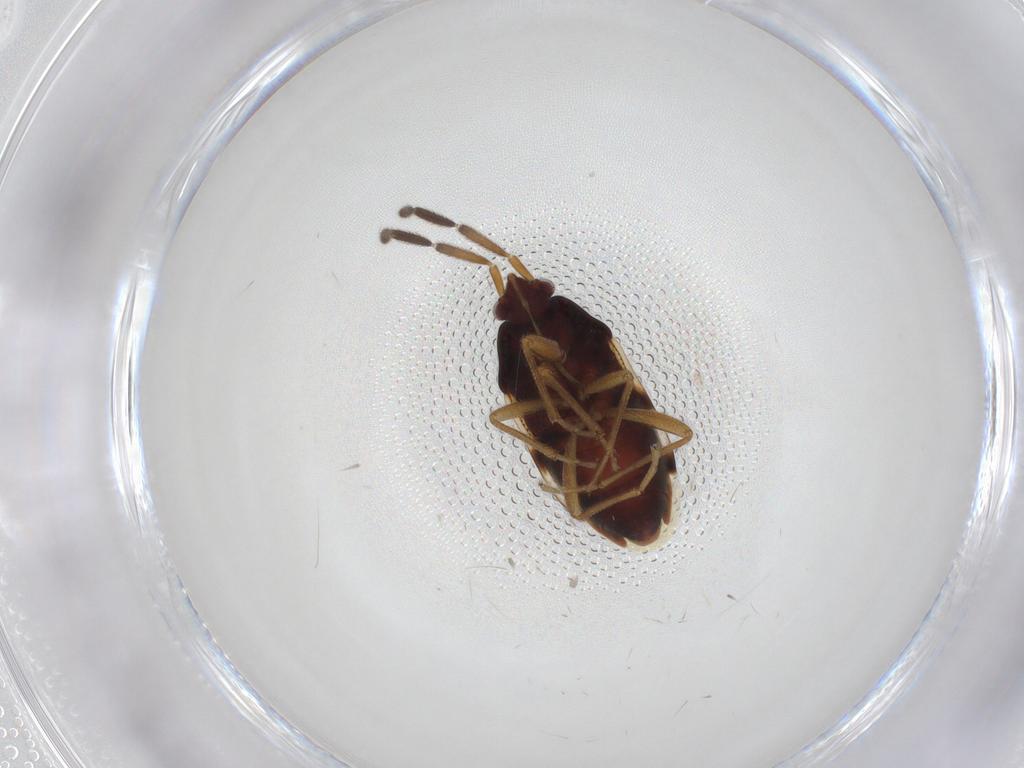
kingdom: Animalia
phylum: Arthropoda
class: Insecta
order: Hemiptera
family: Rhyparochromidae
